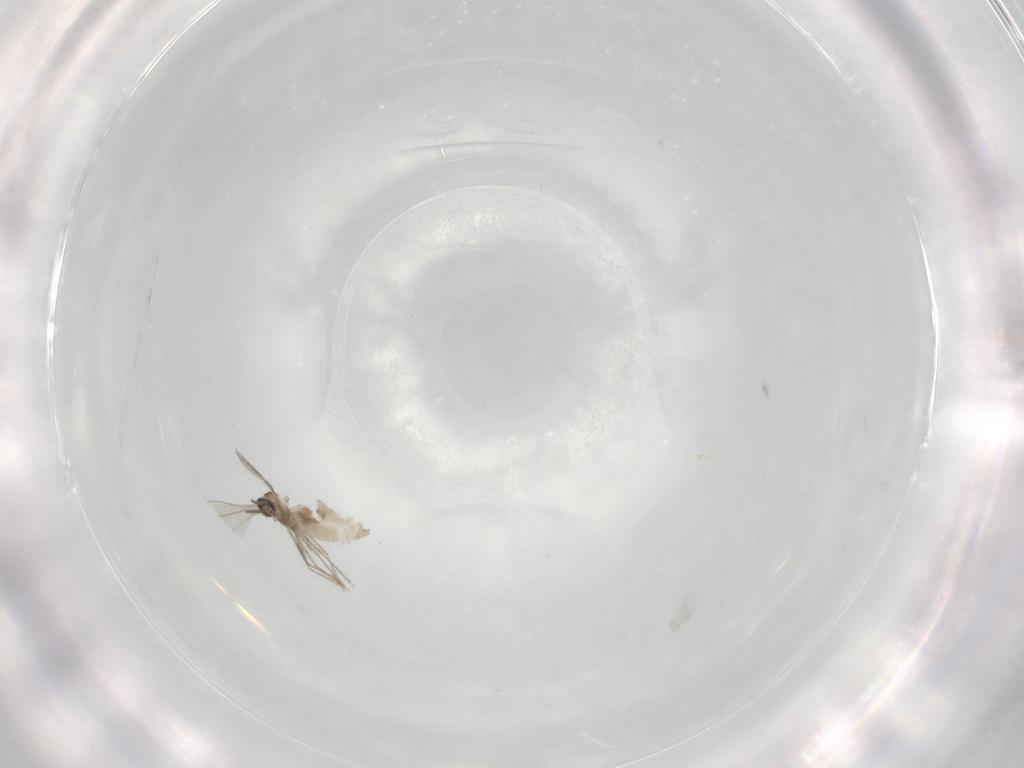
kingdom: Animalia
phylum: Arthropoda
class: Insecta
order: Diptera
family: Cecidomyiidae
